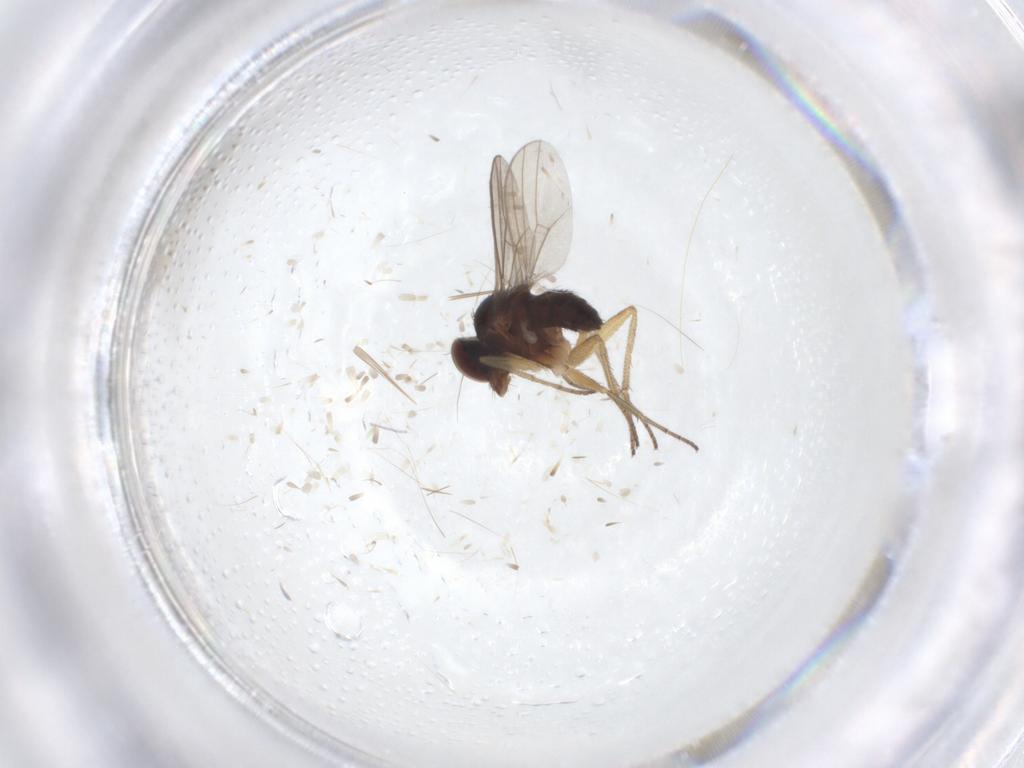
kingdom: Animalia
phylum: Arthropoda
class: Insecta
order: Diptera
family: Dolichopodidae
